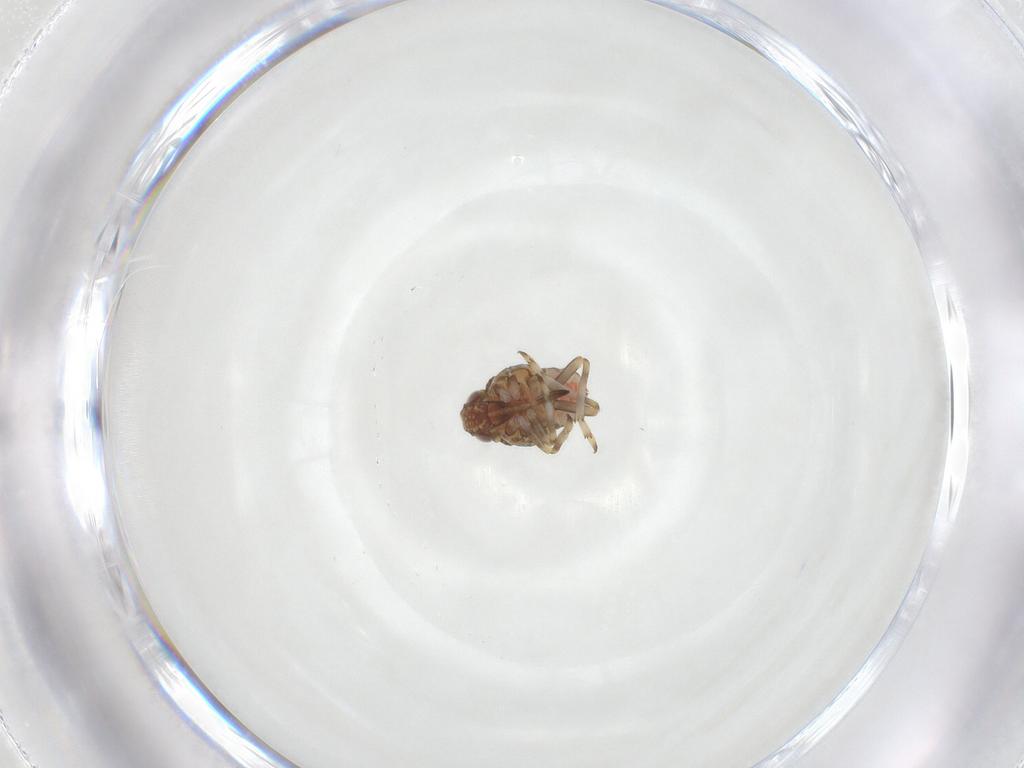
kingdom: Animalia
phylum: Arthropoda
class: Insecta
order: Hemiptera
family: Tropiduchidae
